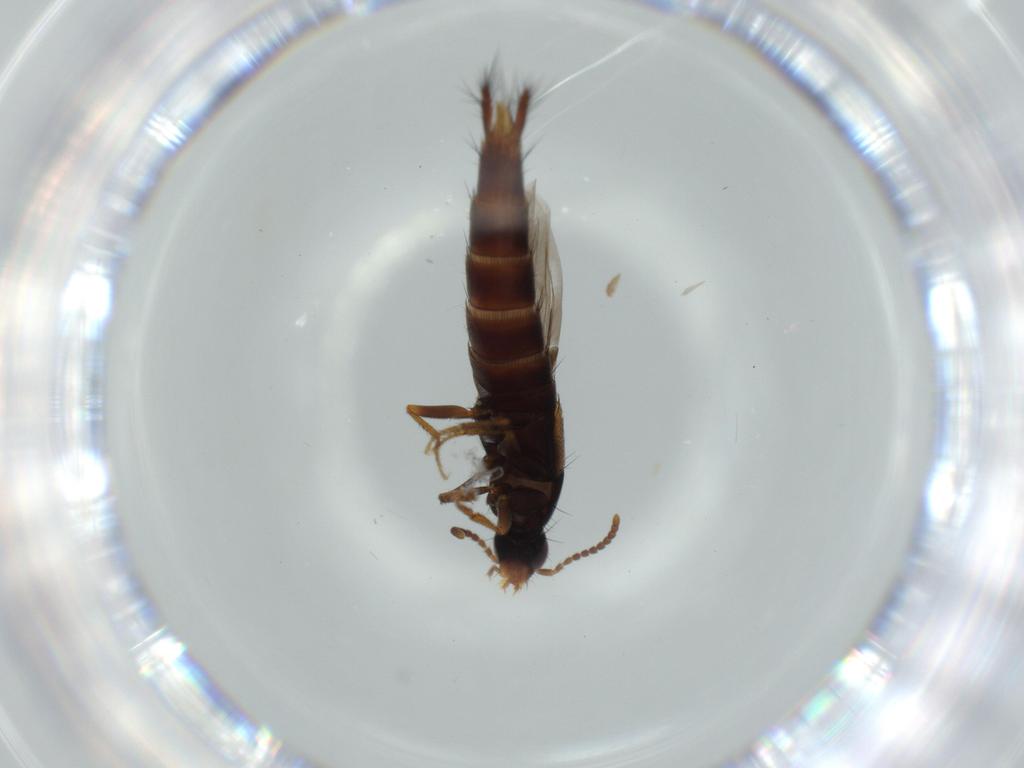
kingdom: Animalia
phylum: Arthropoda
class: Insecta
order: Coleoptera
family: Staphylinidae
